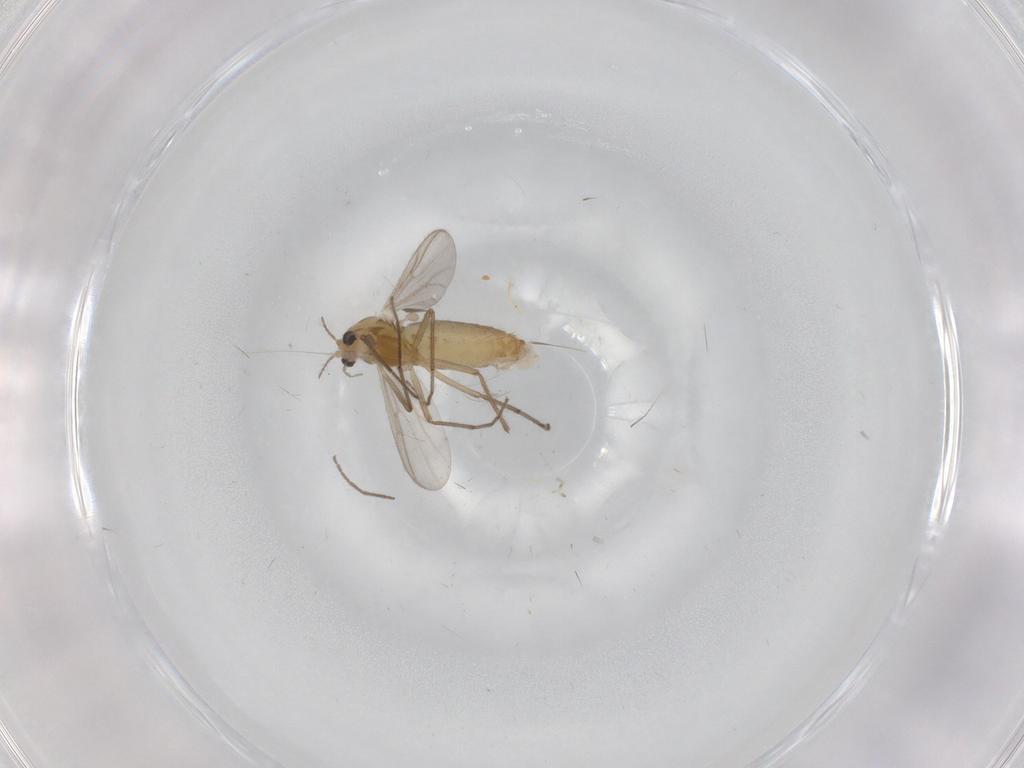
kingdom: Animalia
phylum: Arthropoda
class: Insecta
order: Diptera
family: Chironomidae
